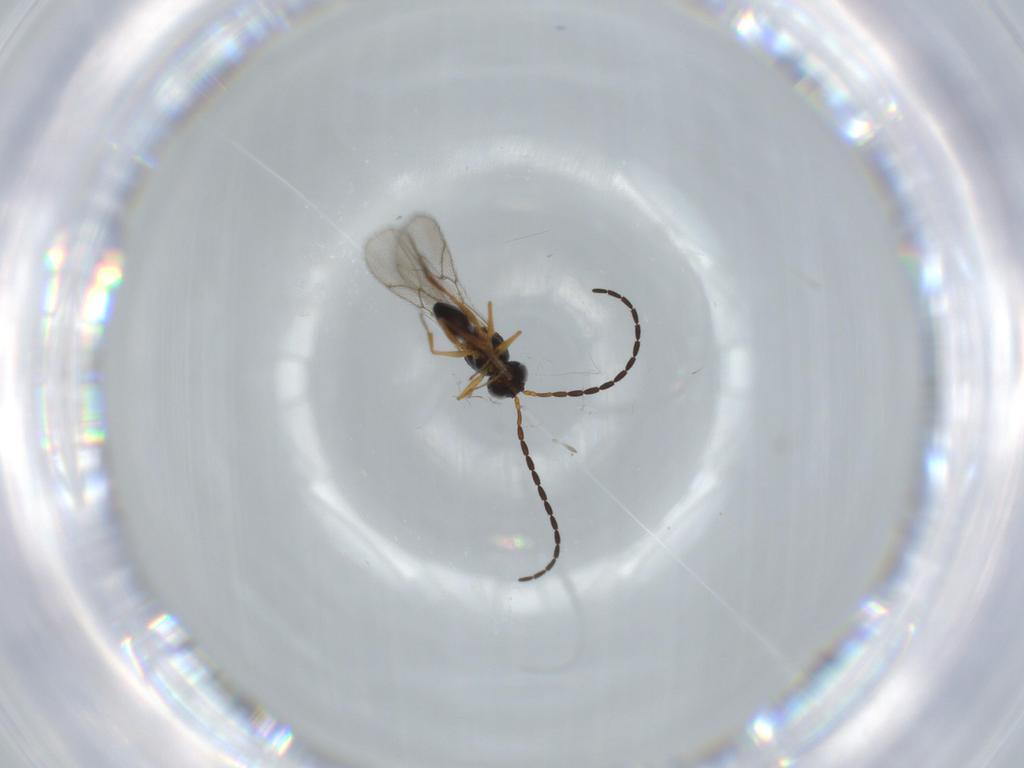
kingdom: Animalia
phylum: Arthropoda
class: Insecta
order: Hymenoptera
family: Figitidae
